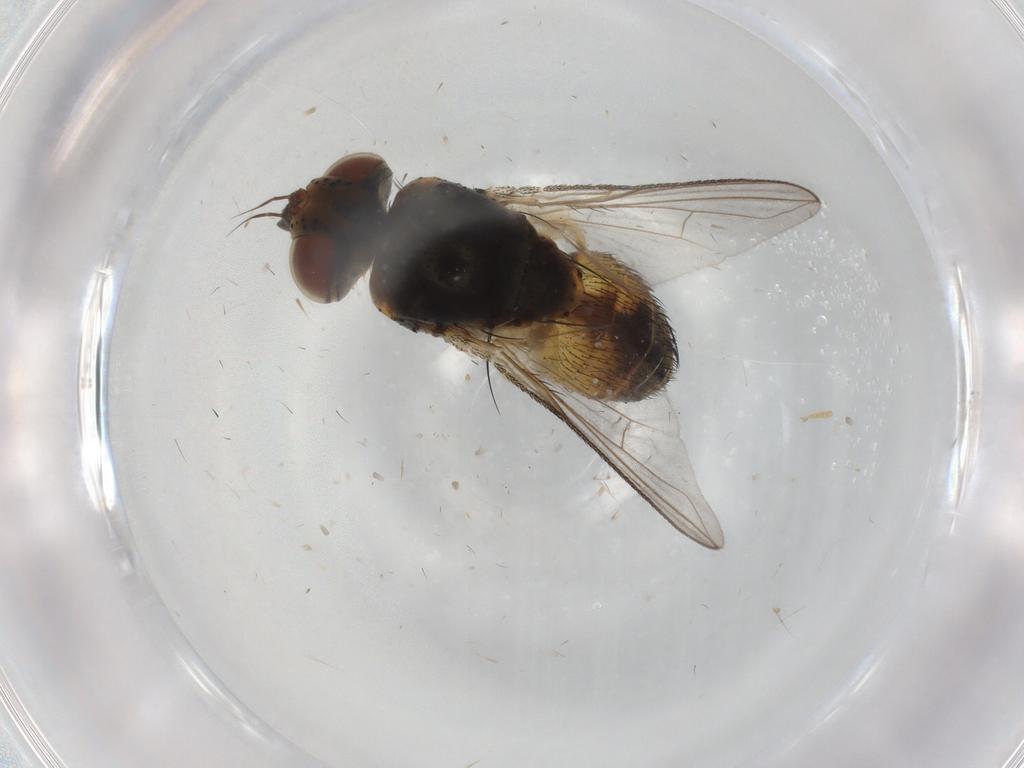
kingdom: Animalia
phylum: Arthropoda
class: Insecta
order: Diptera
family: Tachinidae
